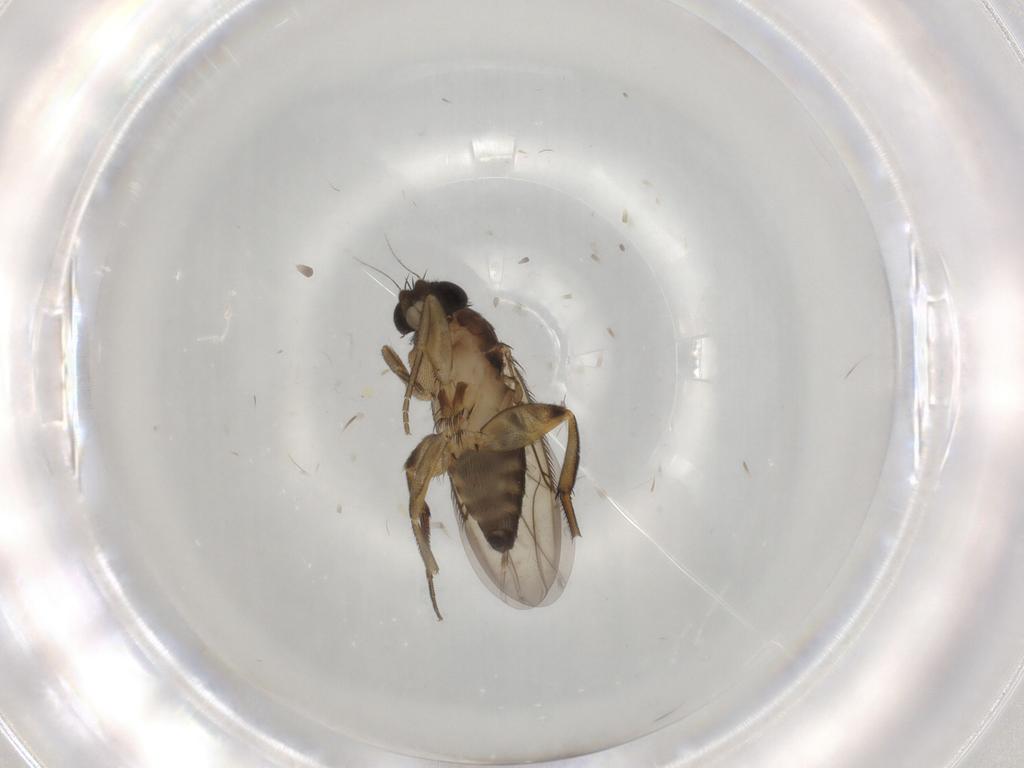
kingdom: Animalia
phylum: Arthropoda
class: Insecta
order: Diptera
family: Phoridae
